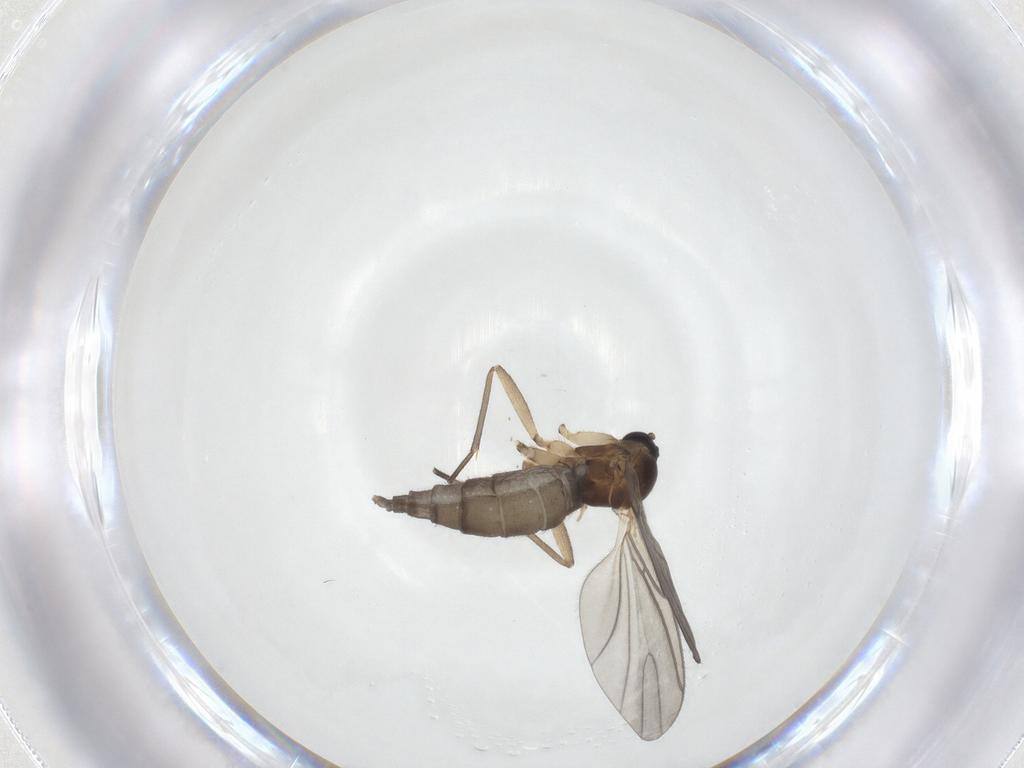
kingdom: Animalia
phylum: Arthropoda
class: Insecta
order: Diptera
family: Sciaridae
